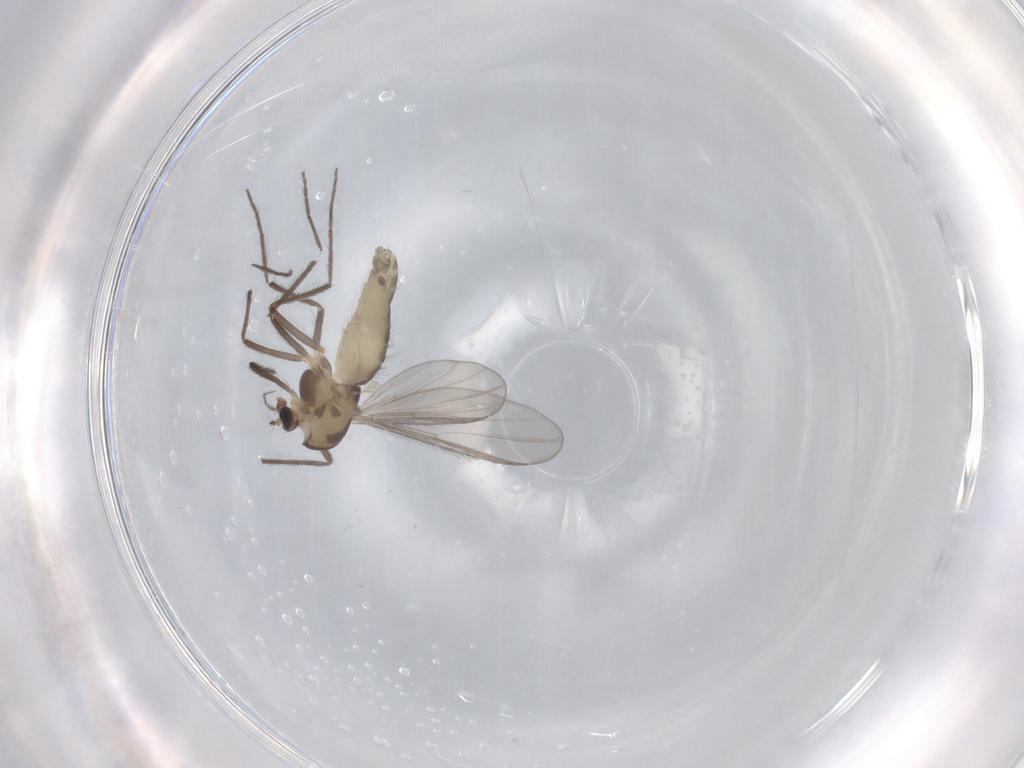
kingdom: Animalia
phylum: Arthropoda
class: Insecta
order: Diptera
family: Chironomidae
